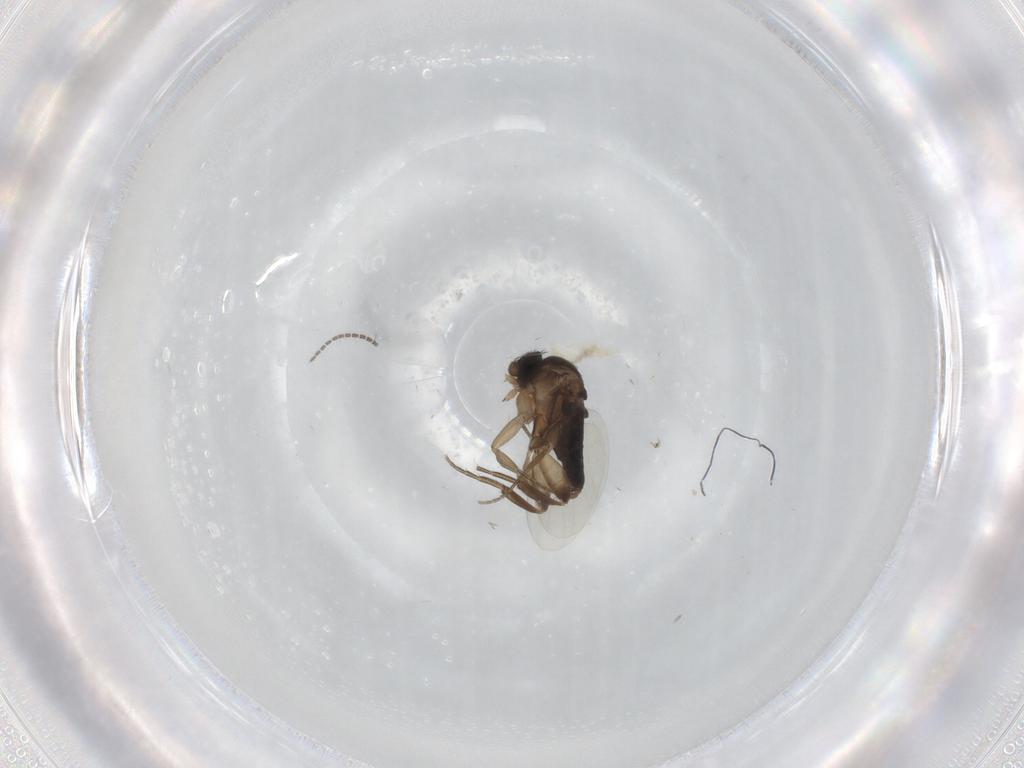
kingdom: Animalia
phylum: Arthropoda
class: Insecta
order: Diptera
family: Phoridae
